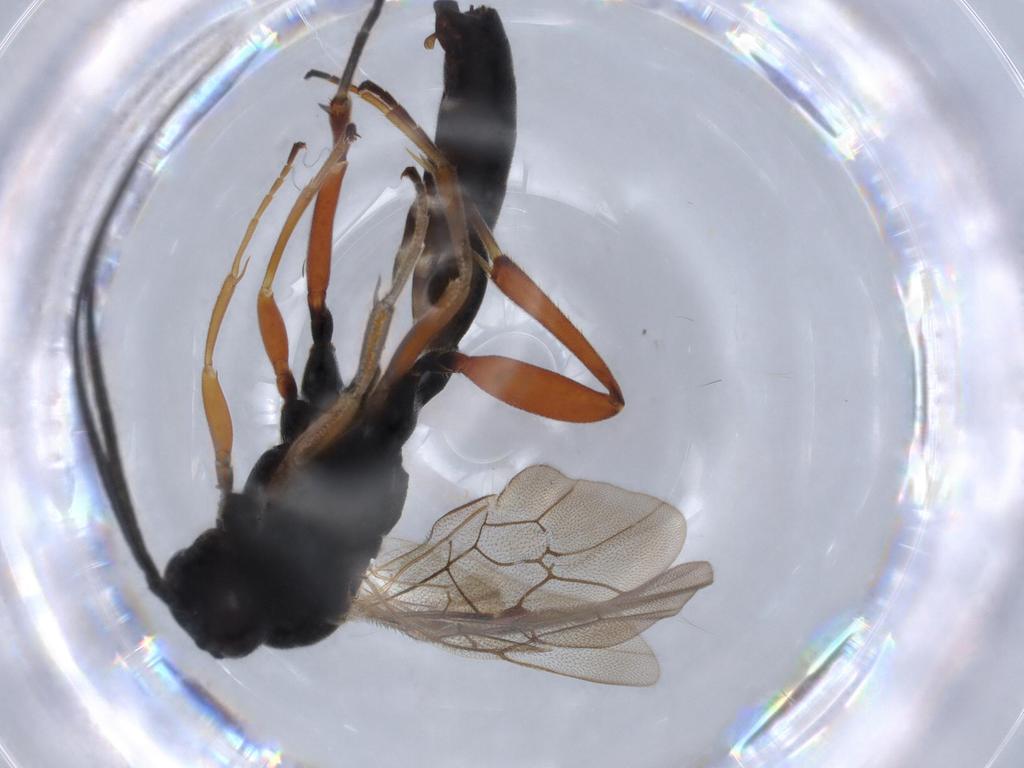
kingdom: Animalia
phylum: Arthropoda
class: Insecta
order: Hymenoptera
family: Ichneumonidae
